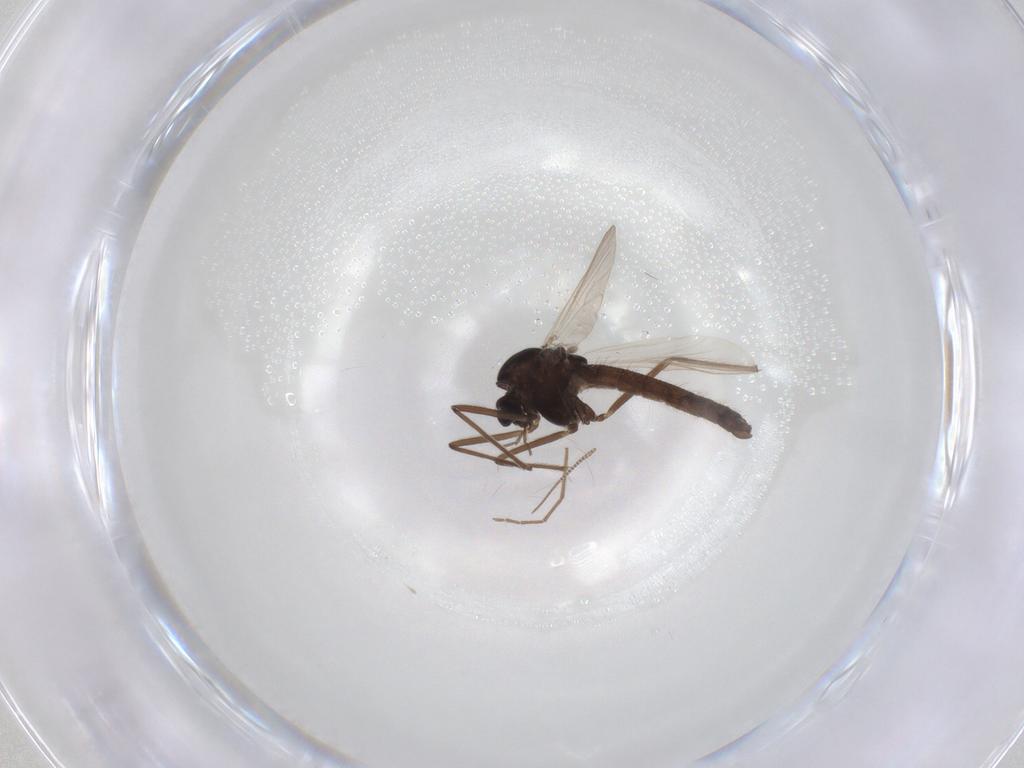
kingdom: Animalia
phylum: Arthropoda
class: Insecta
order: Diptera
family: Chironomidae
